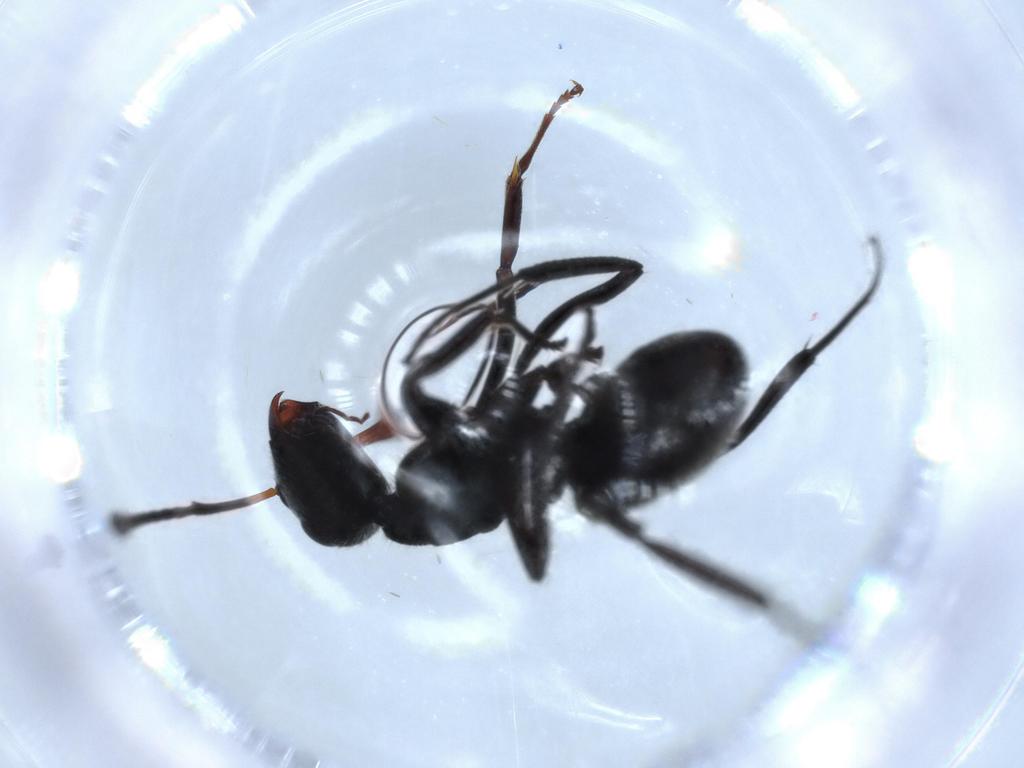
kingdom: Animalia
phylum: Arthropoda
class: Insecta
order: Hymenoptera
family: Formicidae
